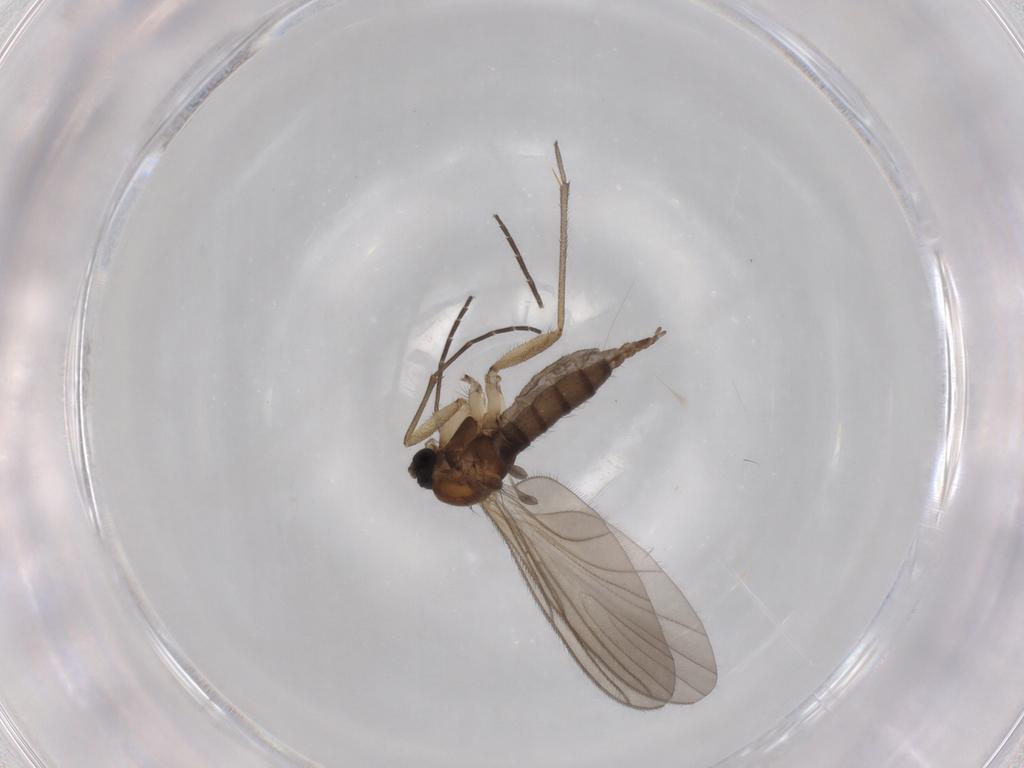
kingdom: Animalia
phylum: Arthropoda
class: Insecta
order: Diptera
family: Sciaridae
